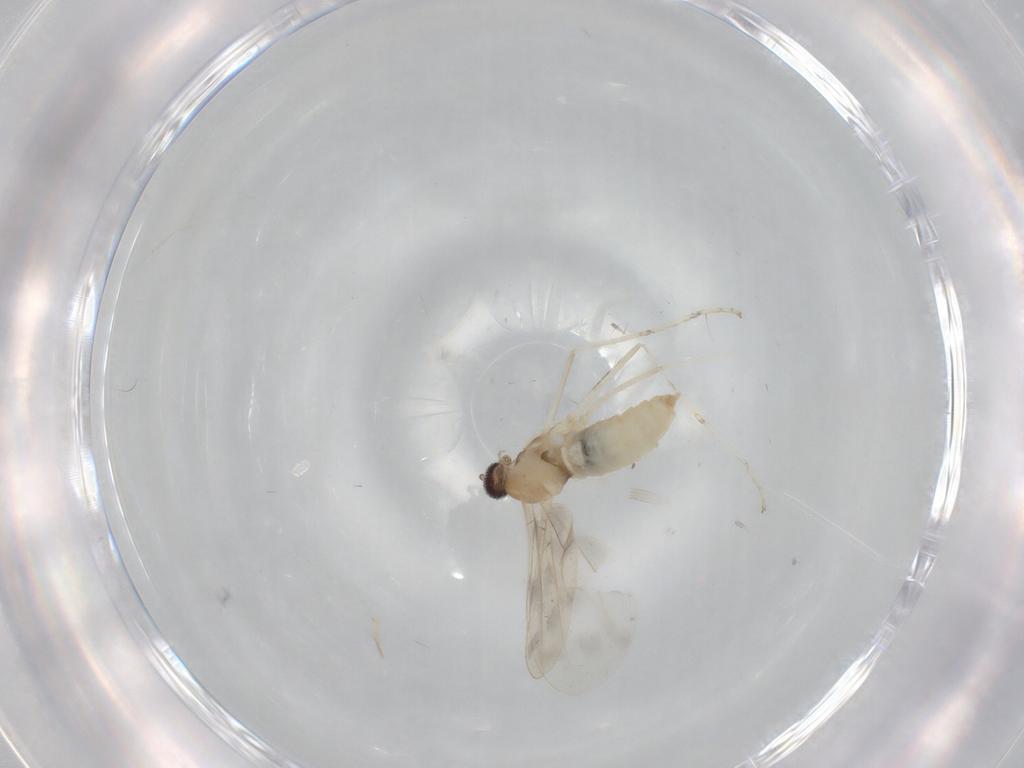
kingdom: Animalia
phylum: Arthropoda
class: Insecta
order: Diptera
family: Cecidomyiidae
